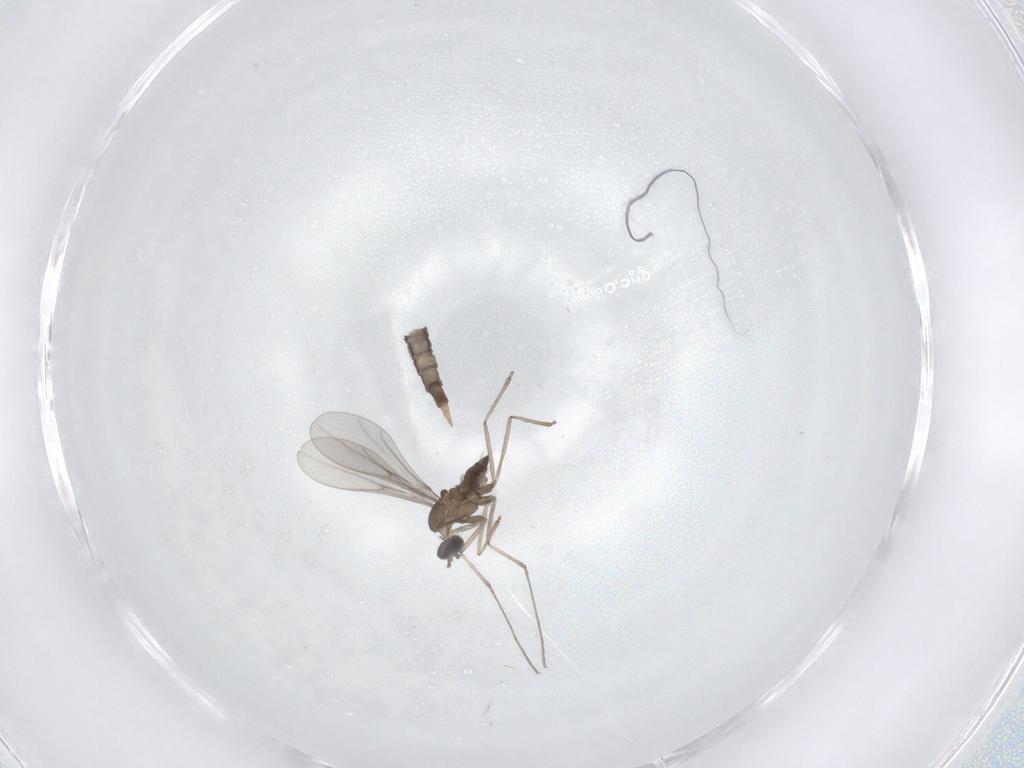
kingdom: Animalia
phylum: Arthropoda
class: Insecta
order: Diptera
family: Cecidomyiidae
